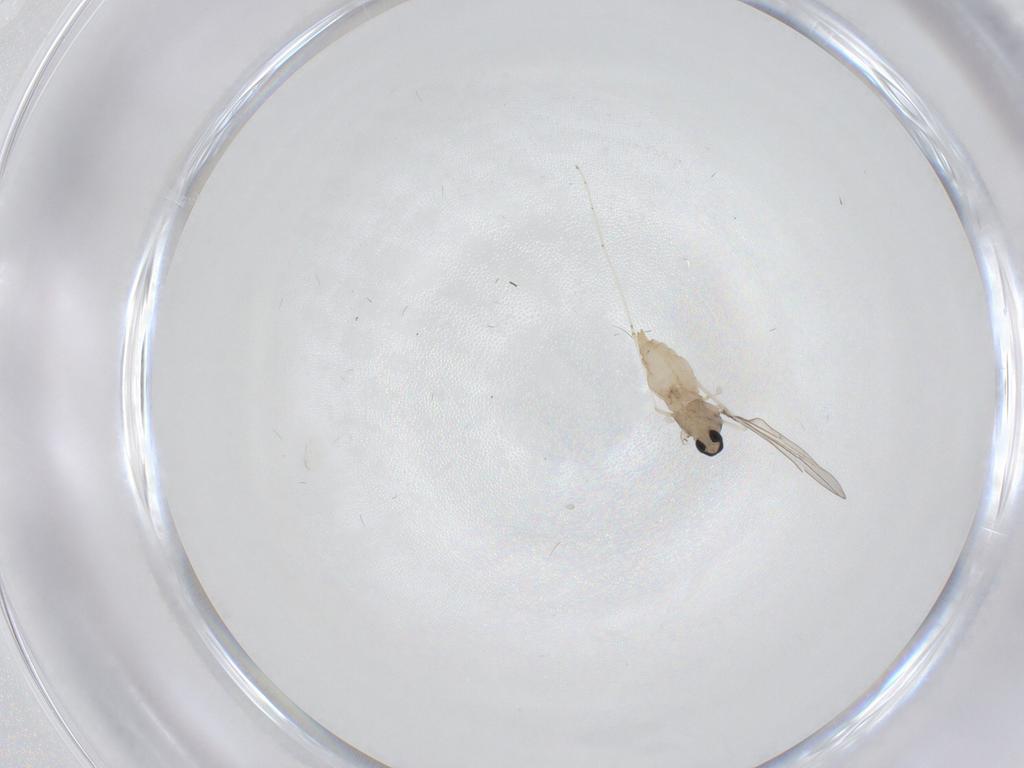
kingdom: Animalia
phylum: Arthropoda
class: Insecta
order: Diptera
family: Limoniidae
